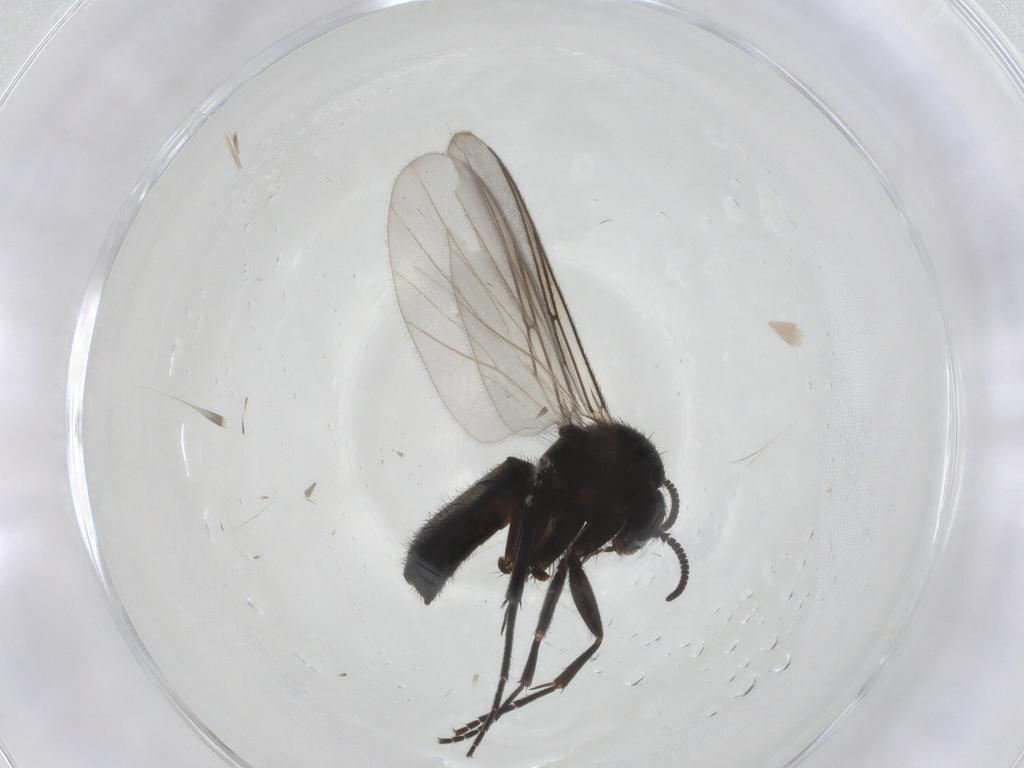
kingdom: Animalia
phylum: Arthropoda
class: Insecta
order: Diptera
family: Mycetophilidae
